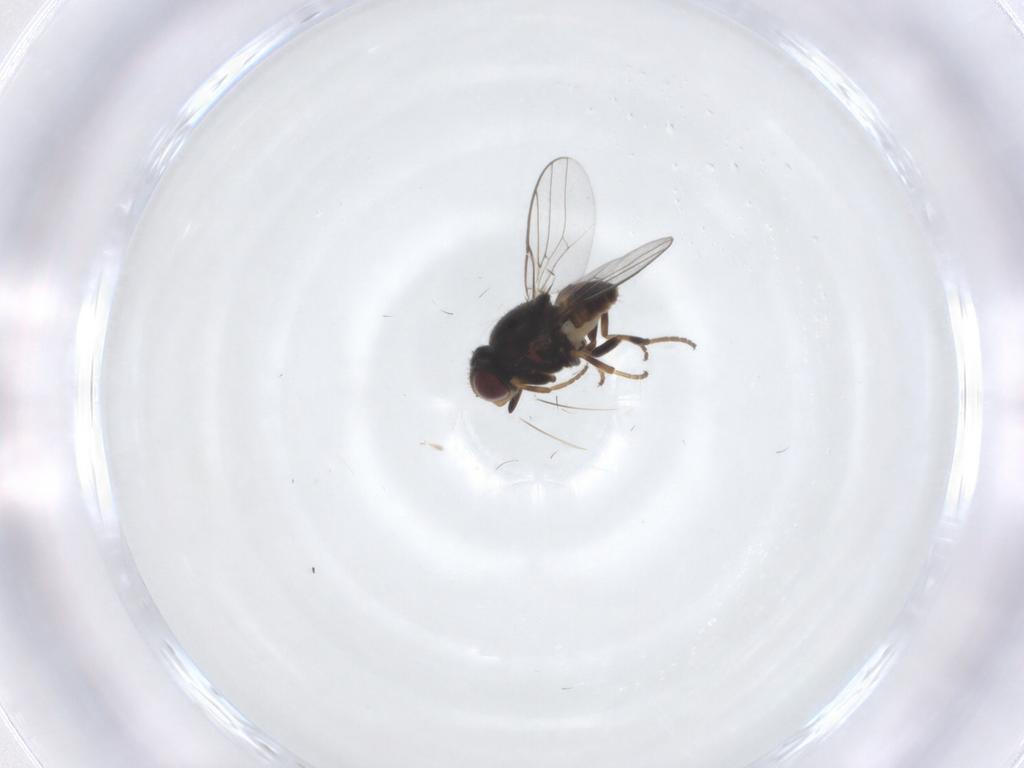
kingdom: Animalia
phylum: Arthropoda
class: Insecta
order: Diptera
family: Chloropidae
